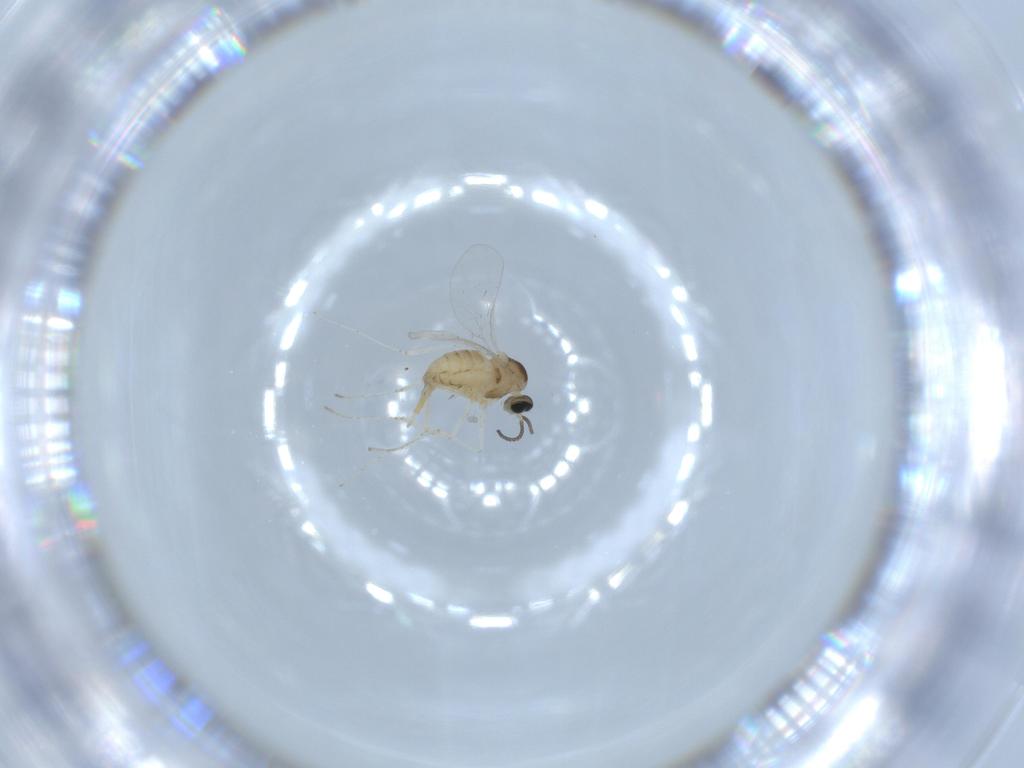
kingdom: Animalia
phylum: Arthropoda
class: Insecta
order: Diptera
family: Cecidomyiidae
